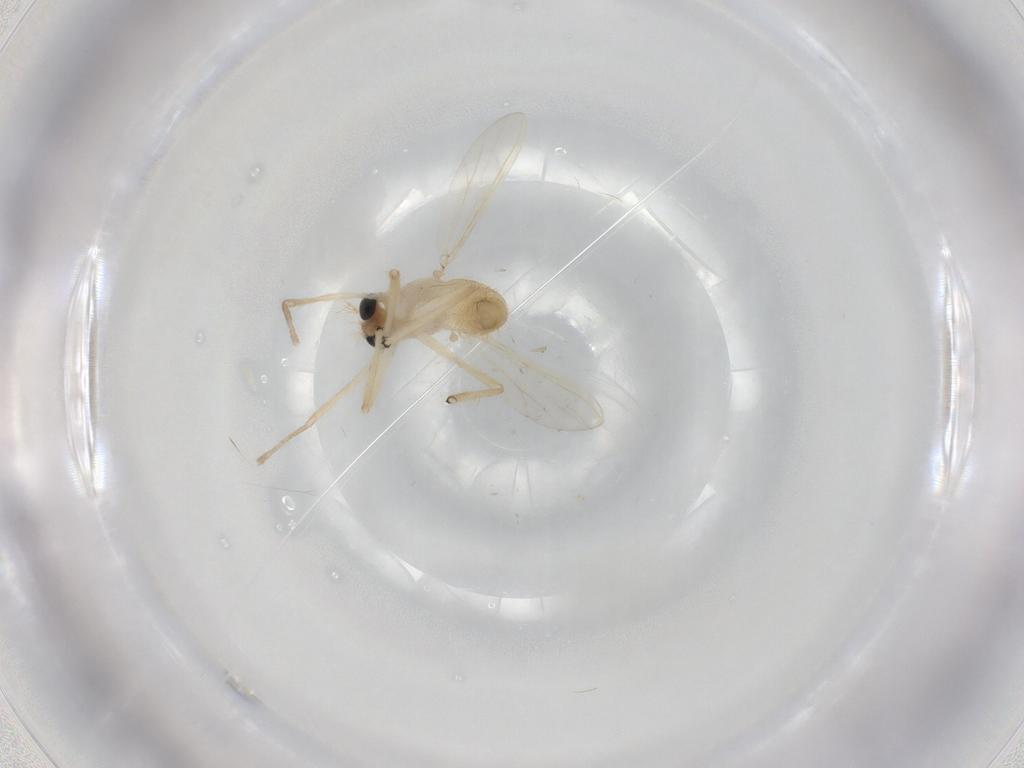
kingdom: Animalia
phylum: Arthropoda
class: Insecta
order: Diptera
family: Chironomidae
